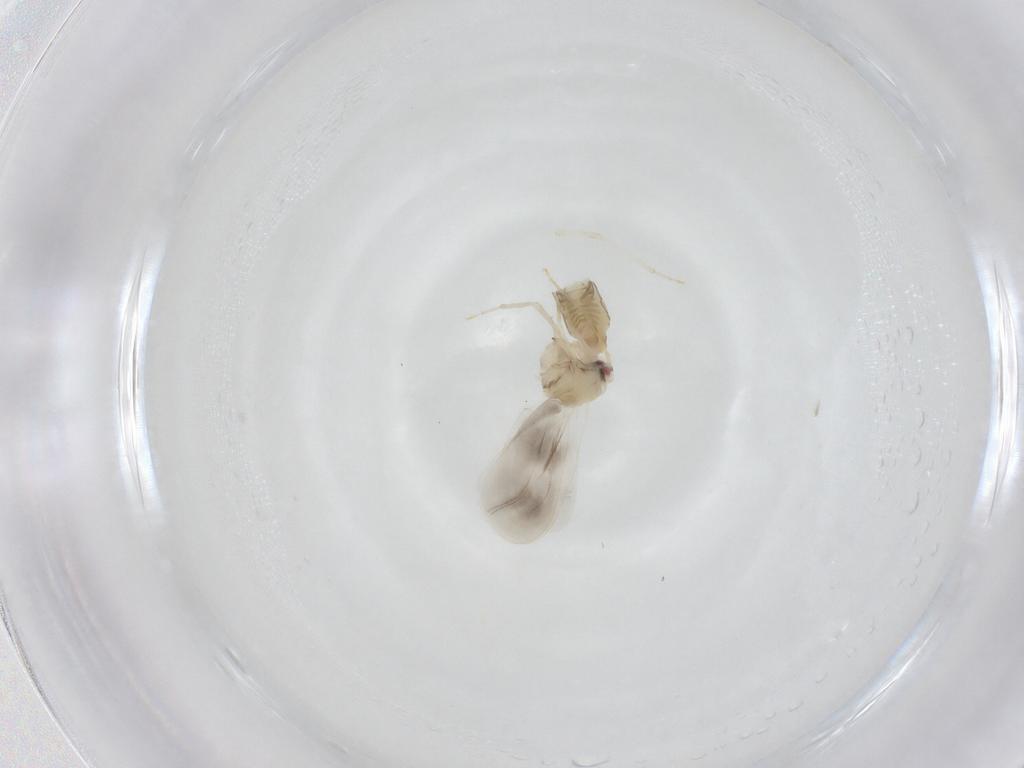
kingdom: Animalia
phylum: Arthropoda
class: Insecta
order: Hemiptera
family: Aleyrodidae
